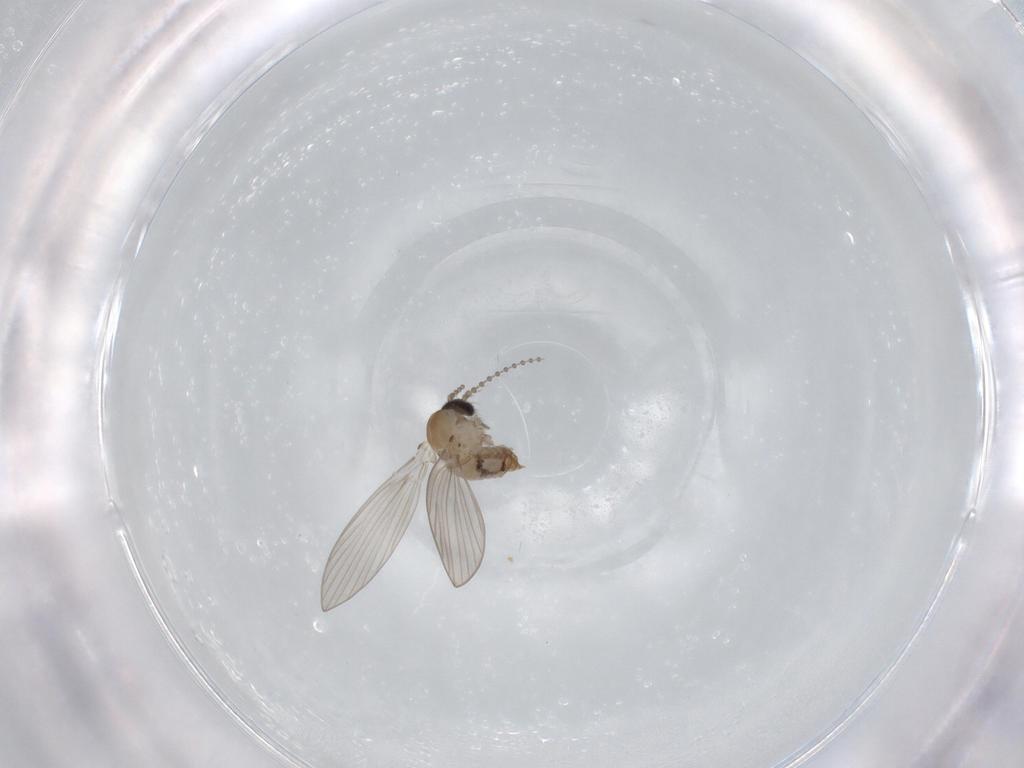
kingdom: Animalia
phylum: Arthropoda
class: Insecta
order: Diptera
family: Psychodidae
